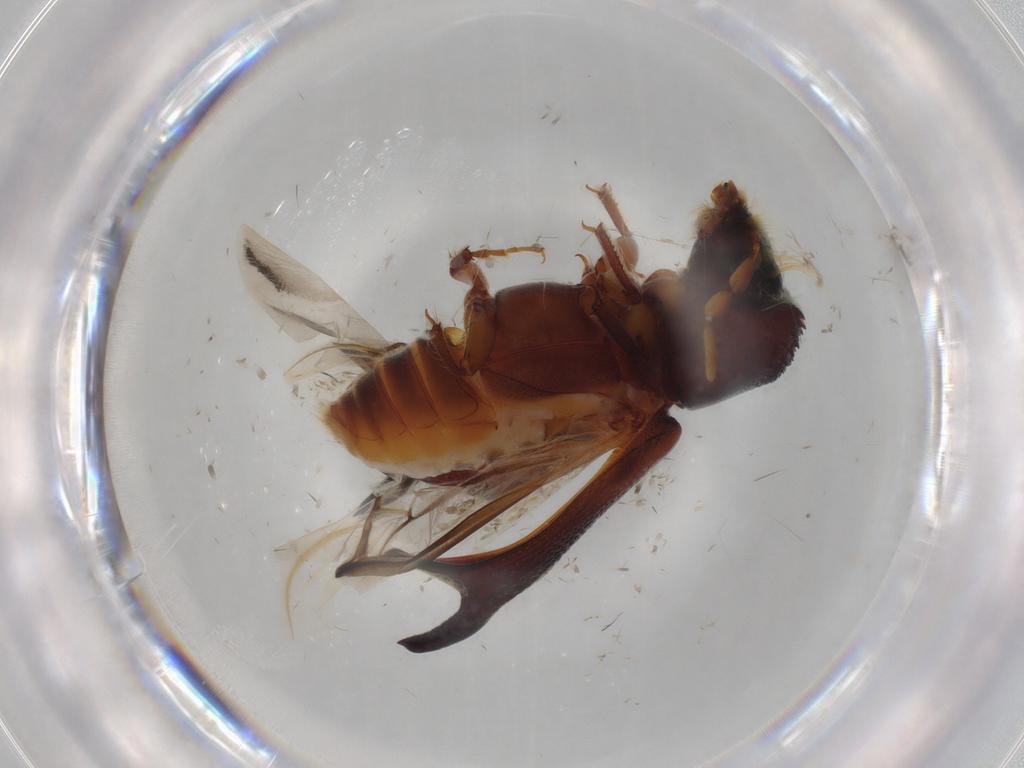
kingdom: Animalia
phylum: Arthropoda
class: Insecta
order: Coleoptera
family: Bostrichidae
